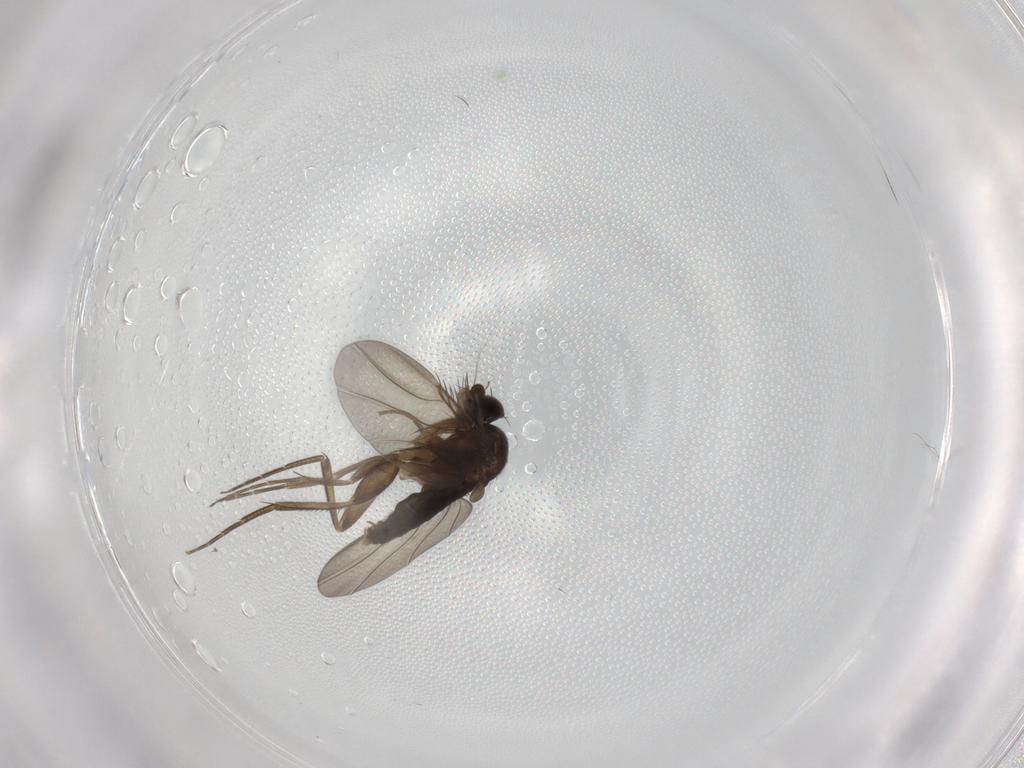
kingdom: Animalia
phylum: Arthropoda
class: Insecta
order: Diptera
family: Phoridae
